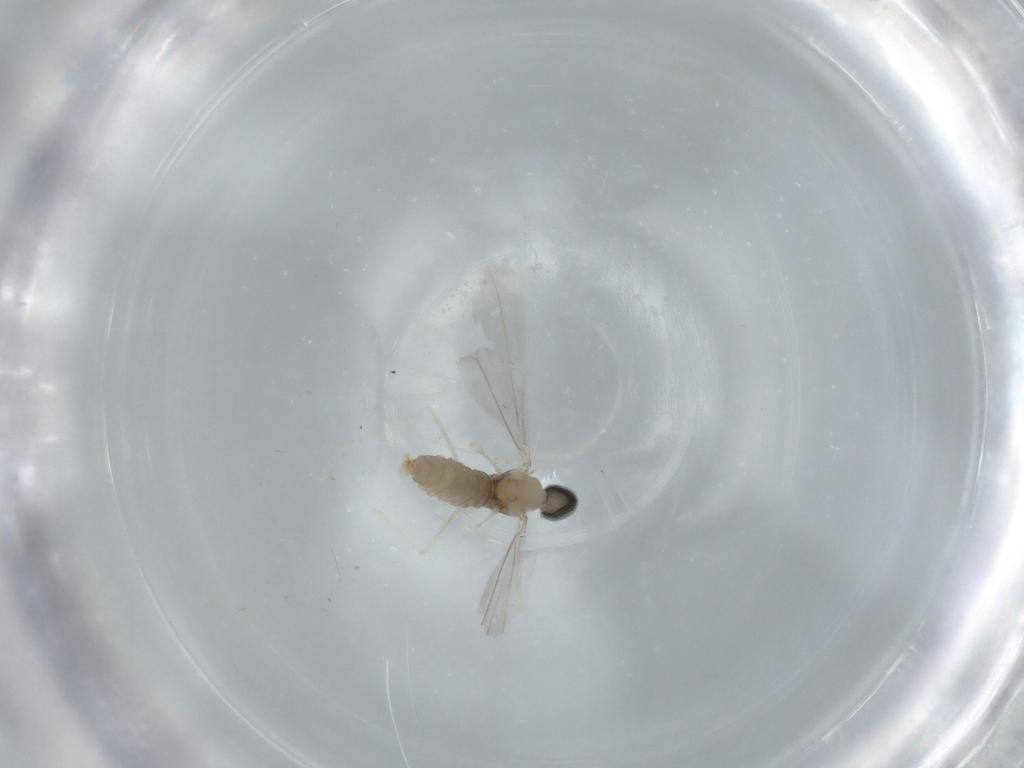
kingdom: Animalia
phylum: Arthropoda
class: Insecta
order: Diptera
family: Cecidomyiidae
